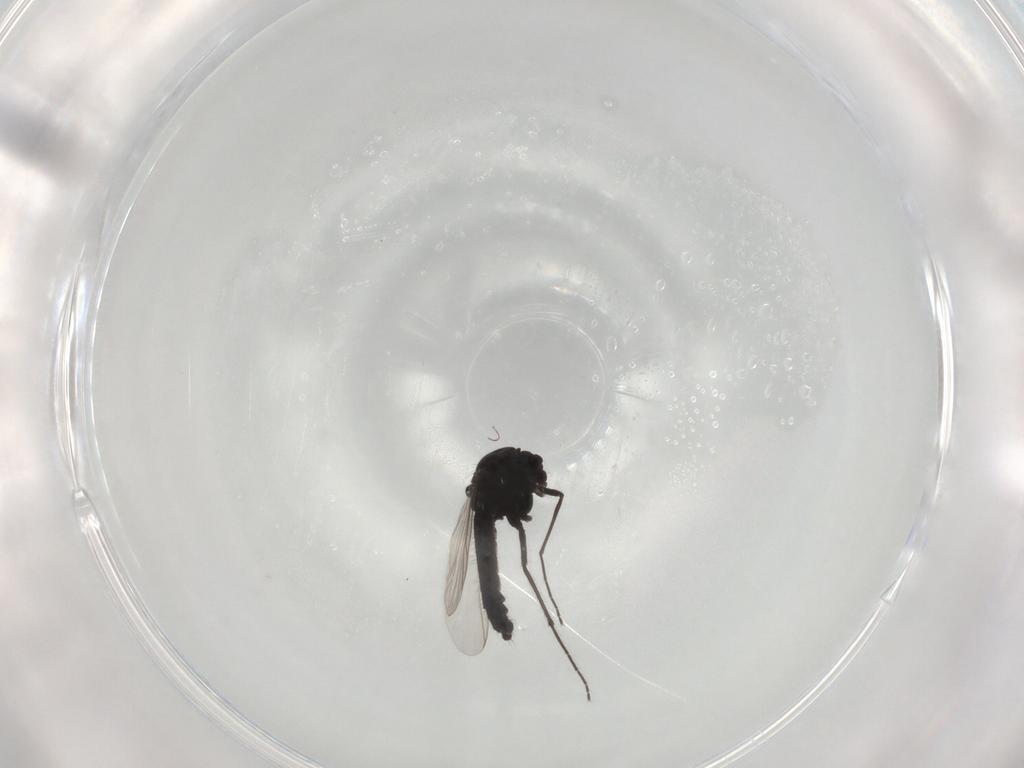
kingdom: Animalia
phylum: Arthropoda
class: Insecta
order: Diptera
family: Chironomidae
